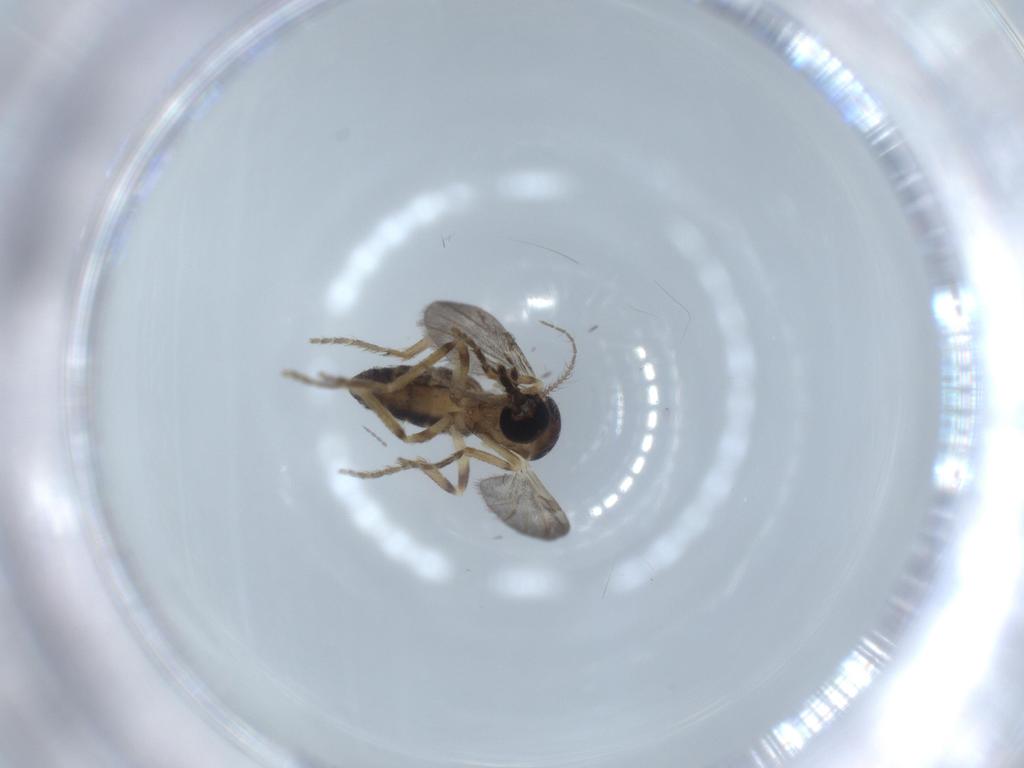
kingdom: Animalia
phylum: Arthropoda
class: Insecta
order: Diptera
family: Ceratopogonidae
